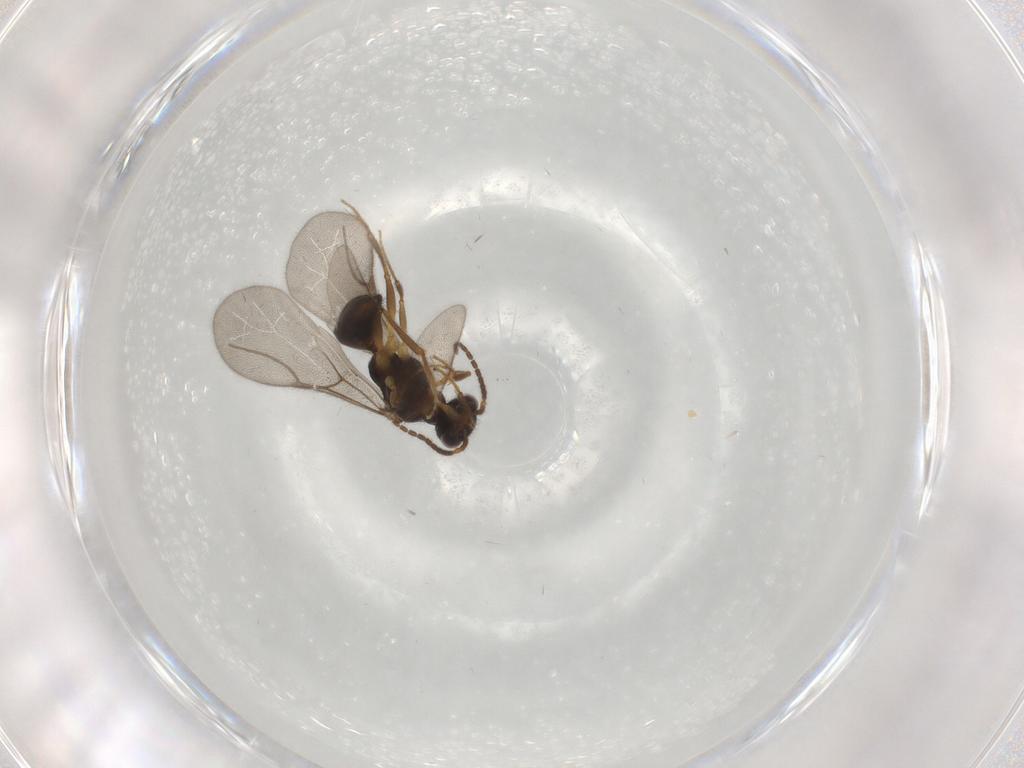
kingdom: Animalia
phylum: Arthropoda
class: Insecta
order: Hymenoptera
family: Bethylidae
